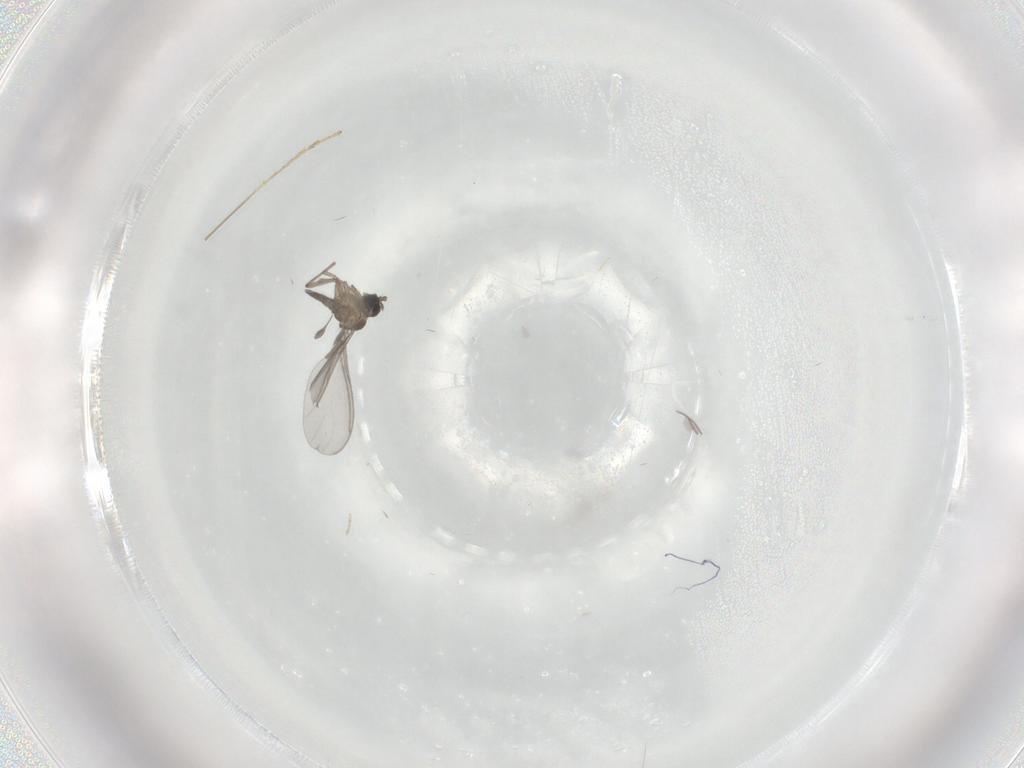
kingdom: Animalia
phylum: Arthropoda
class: Insecta
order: Diptera
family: Sciaridae
